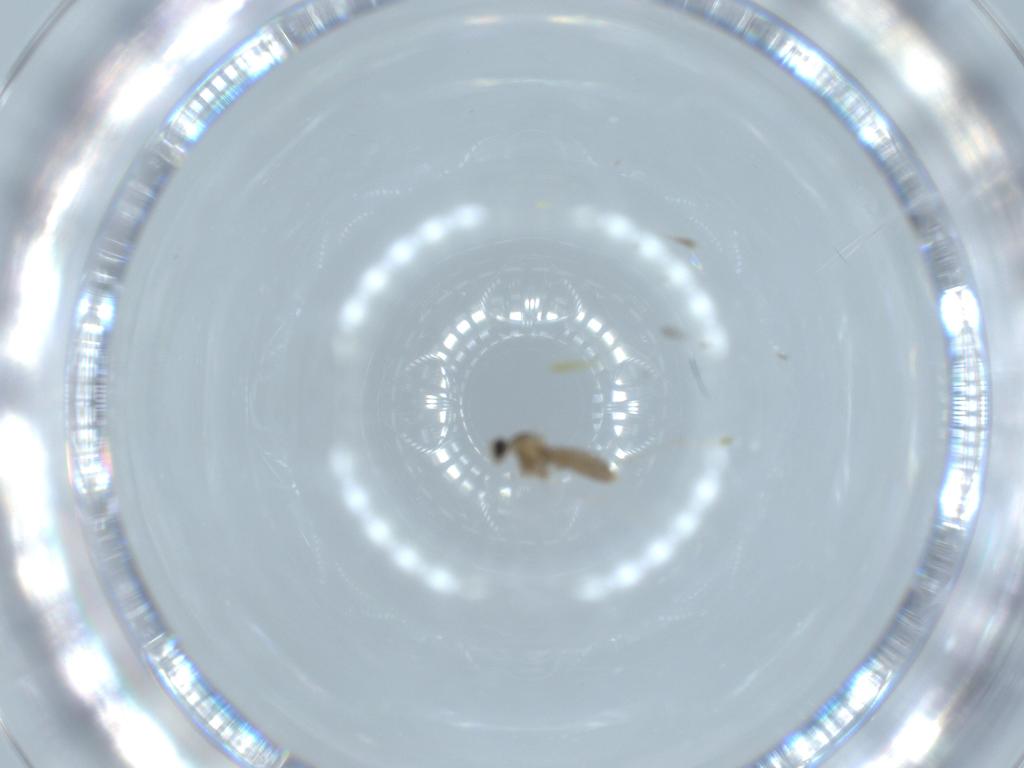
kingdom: Animalia
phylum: Arthropoda
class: Insecta
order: Diptera
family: Cecidomyiidae
